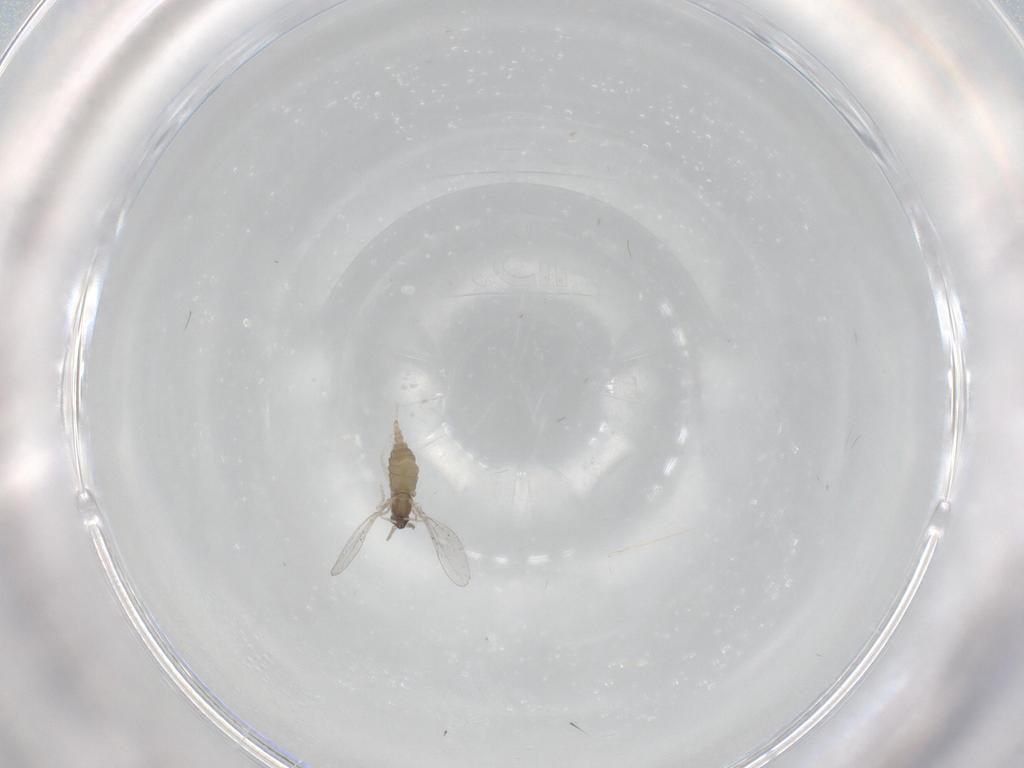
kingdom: Animalia
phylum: Arthropoda
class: Insecta
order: Diptera
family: Cecidomyiidae
